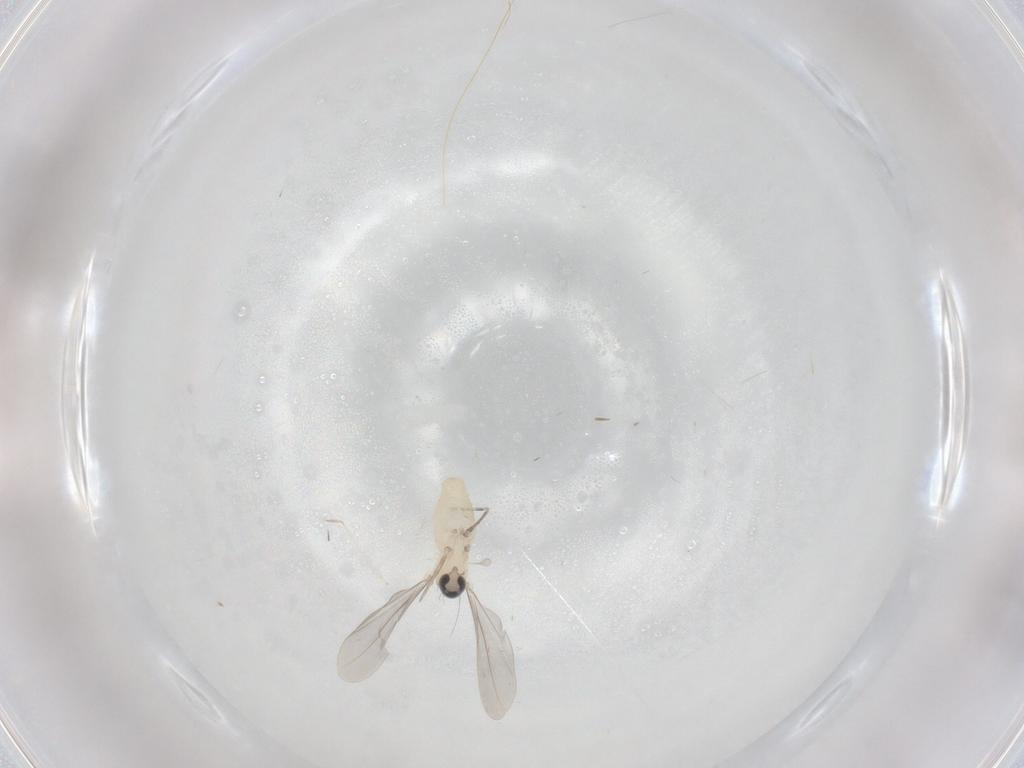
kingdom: Animalia
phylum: Arthropoda
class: Insecta
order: Diptera
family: Cecidomyiidae
